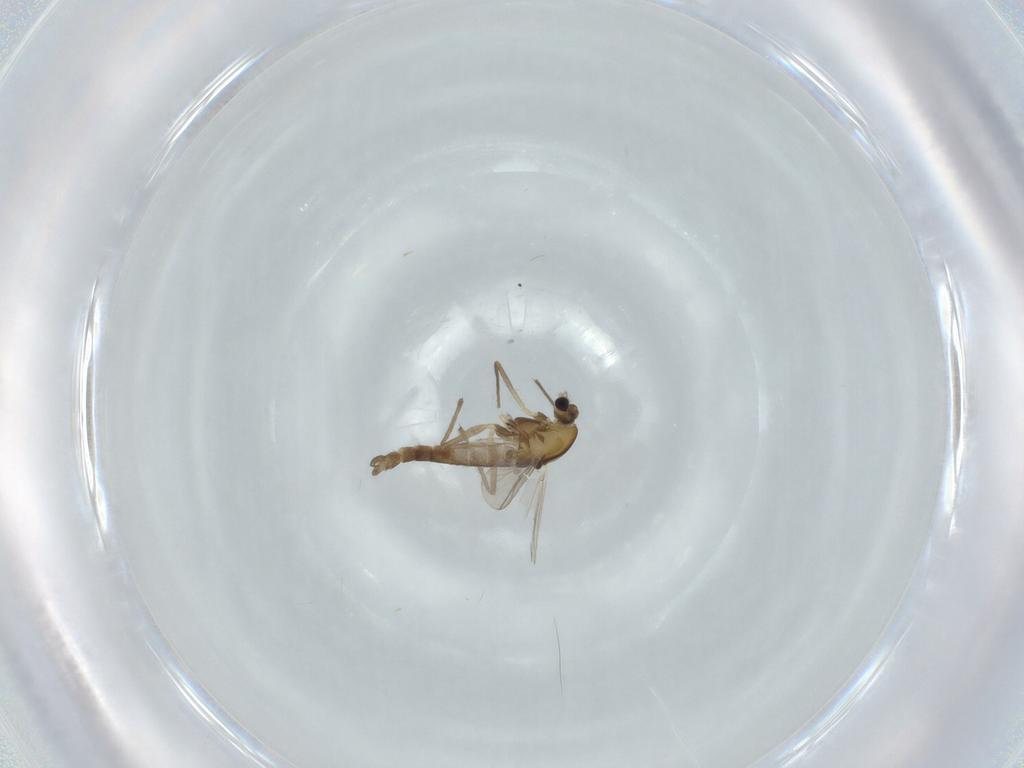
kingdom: Animalia
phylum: Arthropoda
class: Insecta
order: Diptera
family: Chironomidae
